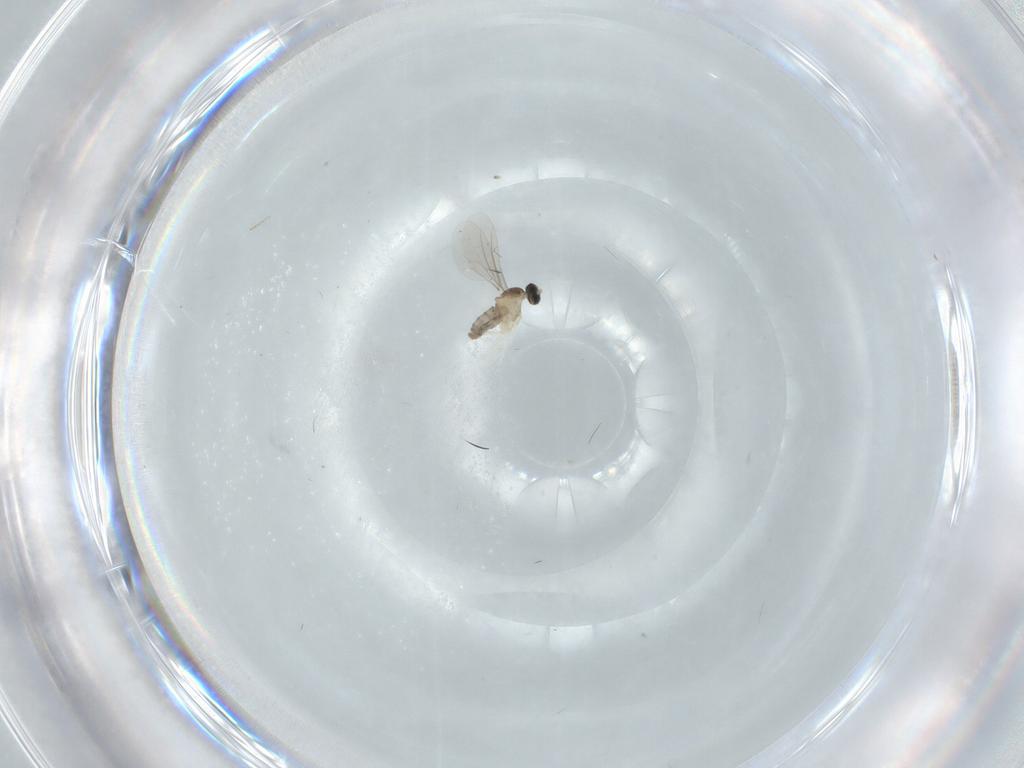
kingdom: Animalia
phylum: Arthropoda
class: Insecta
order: Diptera
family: Cecidomyiidae
